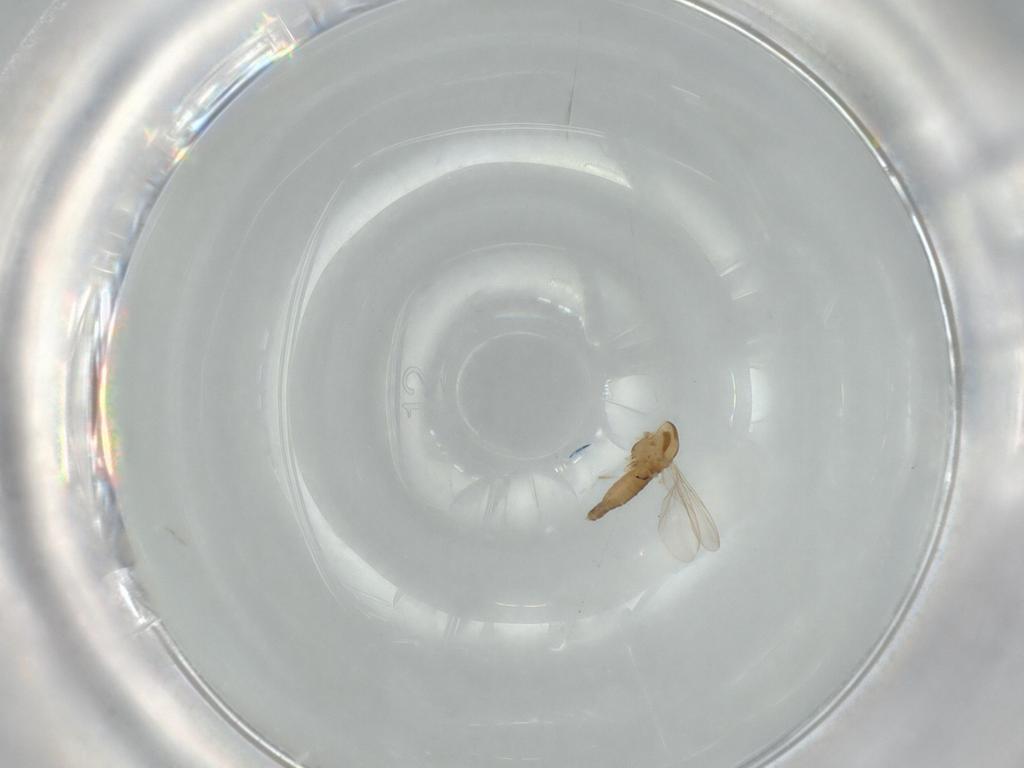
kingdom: Animalia
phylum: Arthropoda
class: Insecta
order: Diptera
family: Chironomidae
